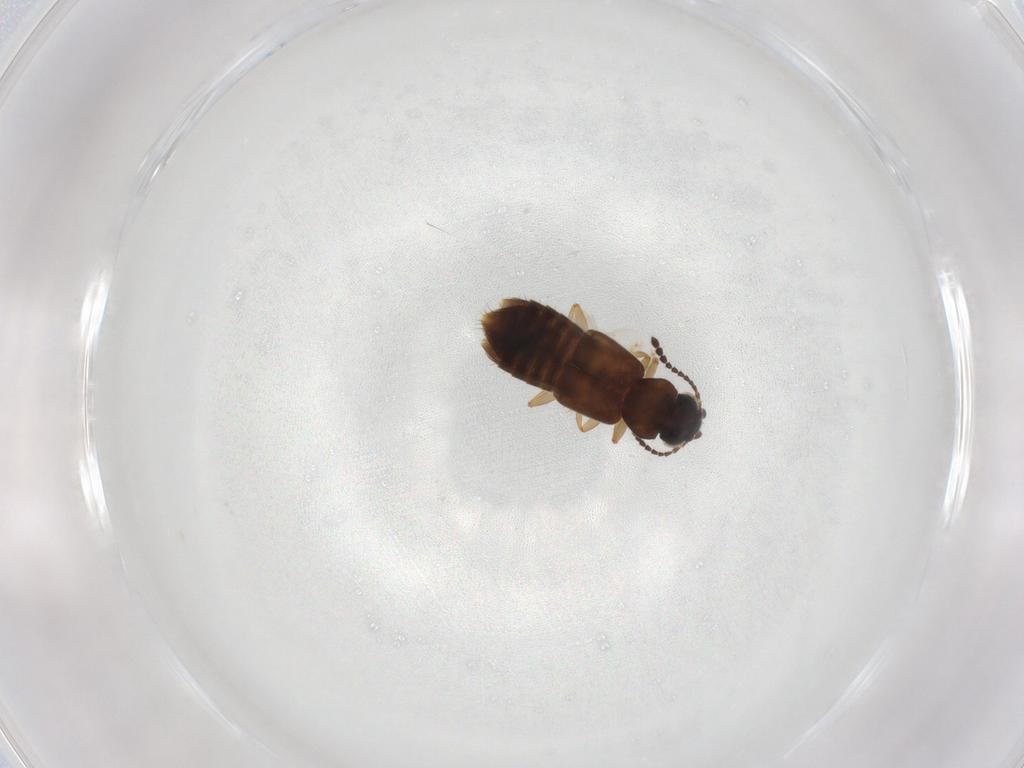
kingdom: Animalia
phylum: Arthropoda
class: Insecta
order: Coleoptera
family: Staphylinidae
